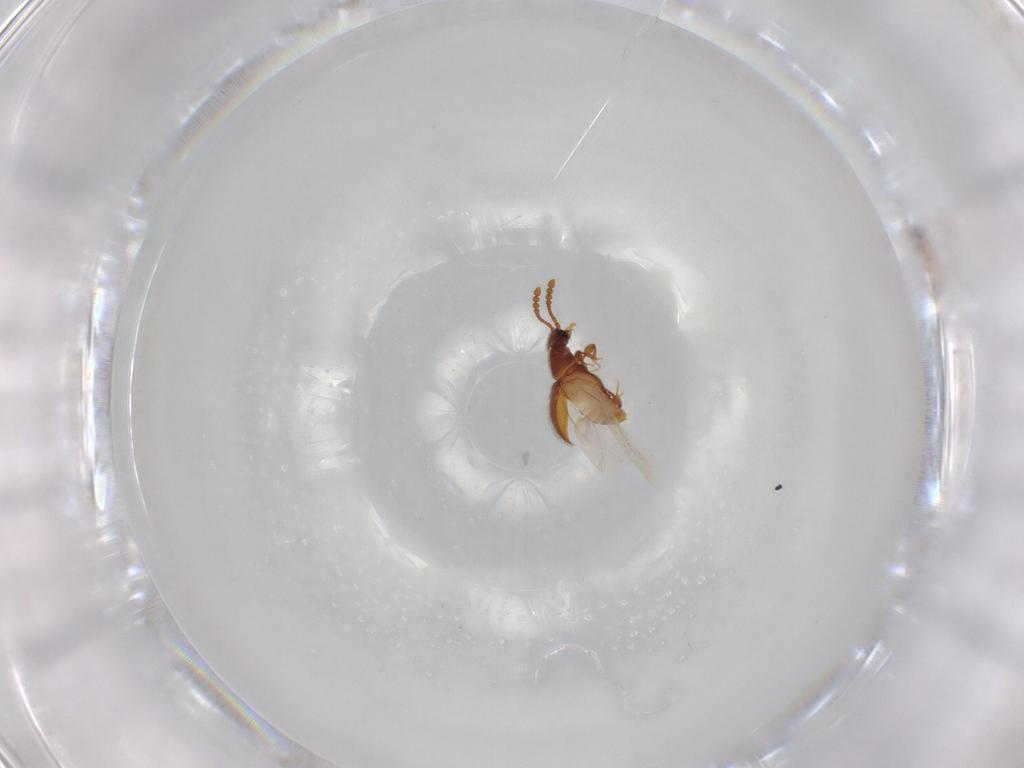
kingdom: Animalia
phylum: Arthropoda
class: Insecta
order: Coleoptera
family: Staphylinidae
